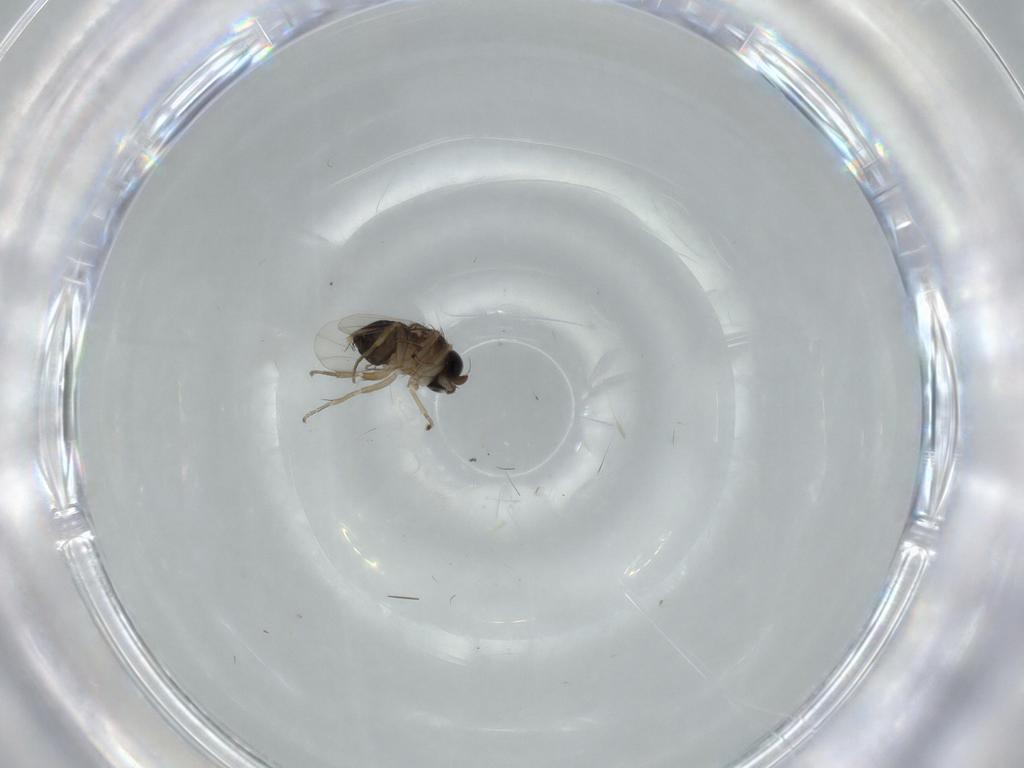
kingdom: Animalia
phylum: Arthropoda
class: Insecta
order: Diptera
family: Phoridae
